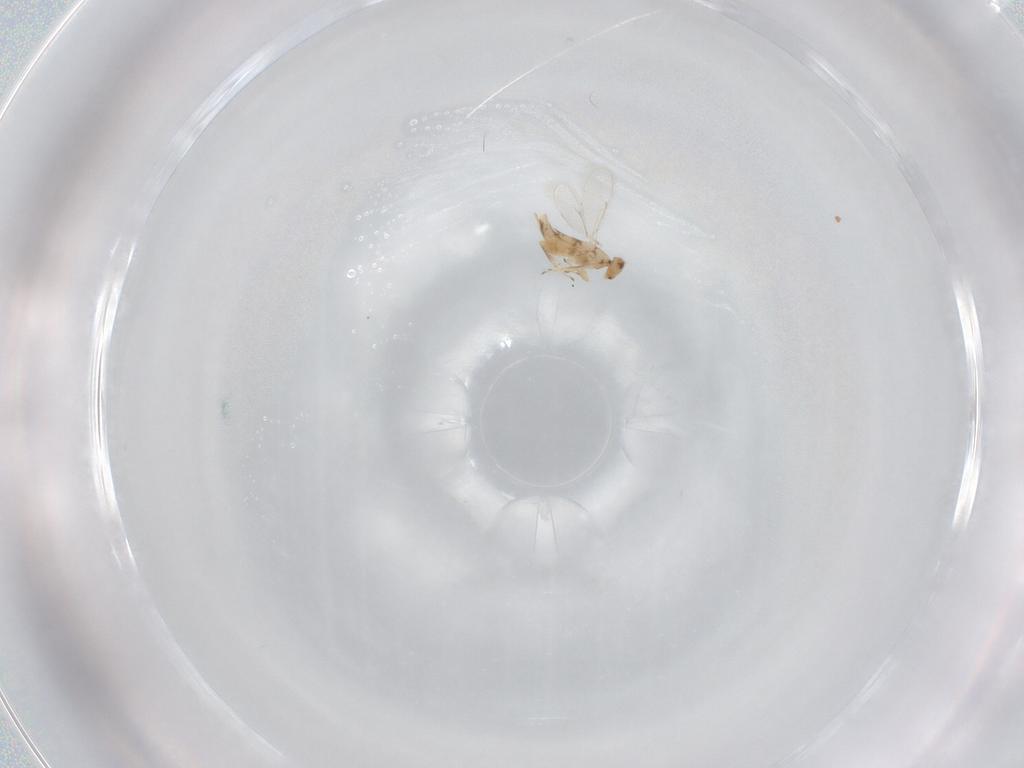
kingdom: Animalia
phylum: Arthropoda
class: Insecta
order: Hymenoptera
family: Aphelinidae
